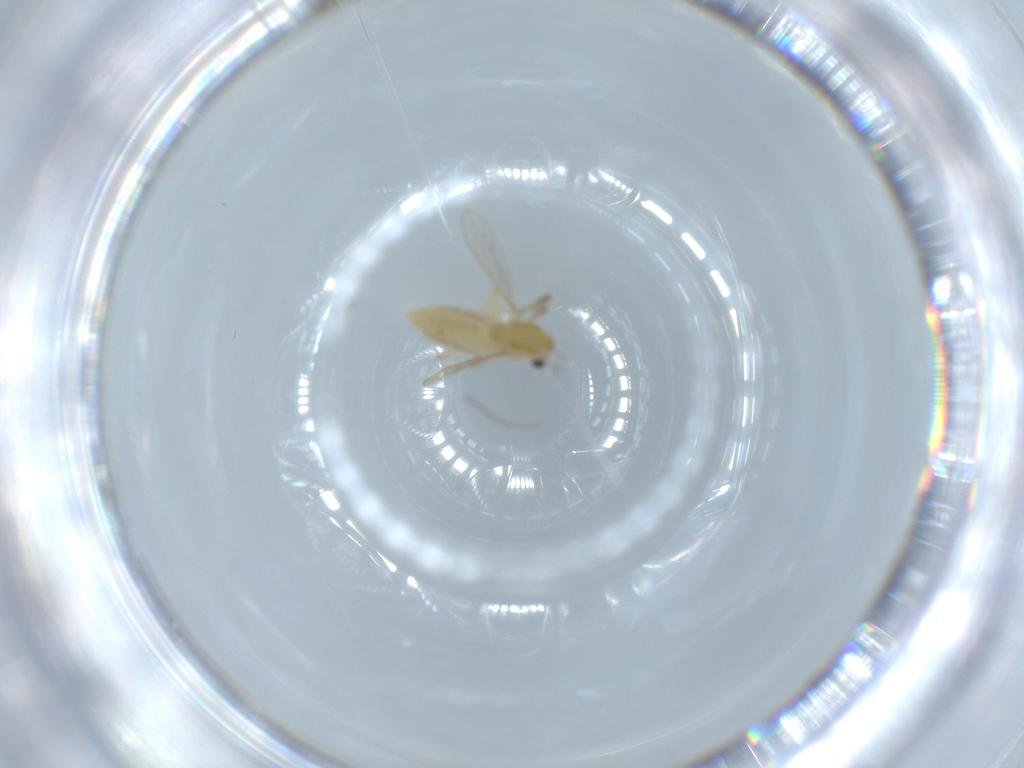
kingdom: Animalia
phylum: Arthropoda
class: Insecta
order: Diptera
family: Chironomidae
